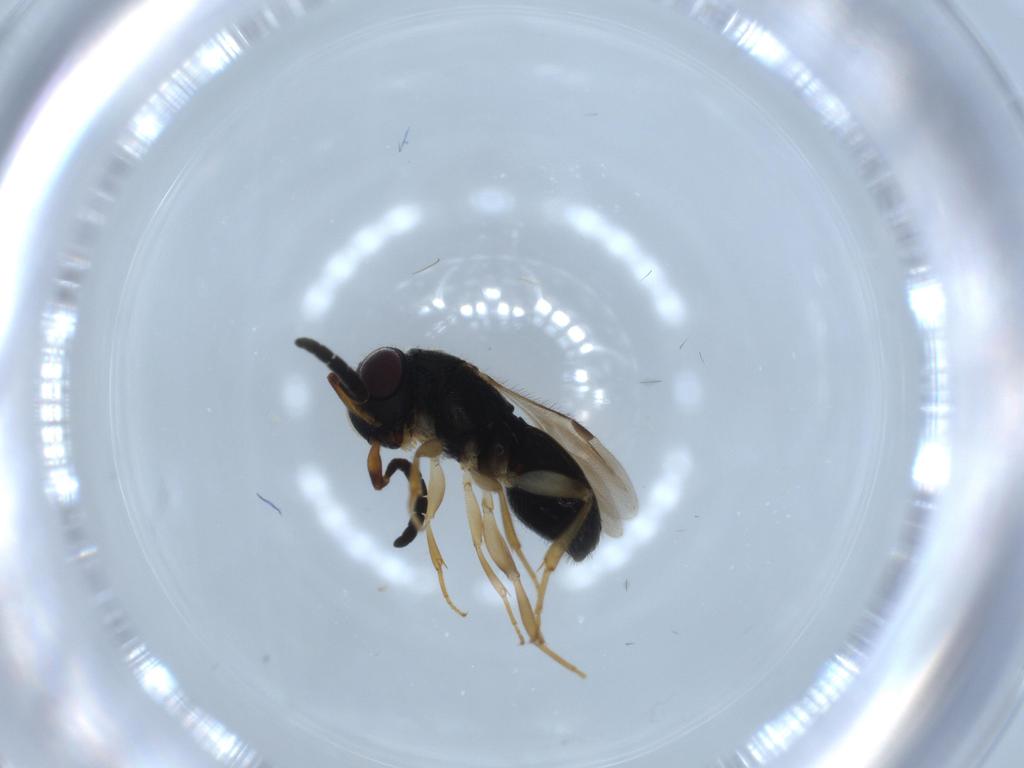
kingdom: Animalia
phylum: Arthropoda
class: Insecta
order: Hymenoptera
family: Megaspilidae
